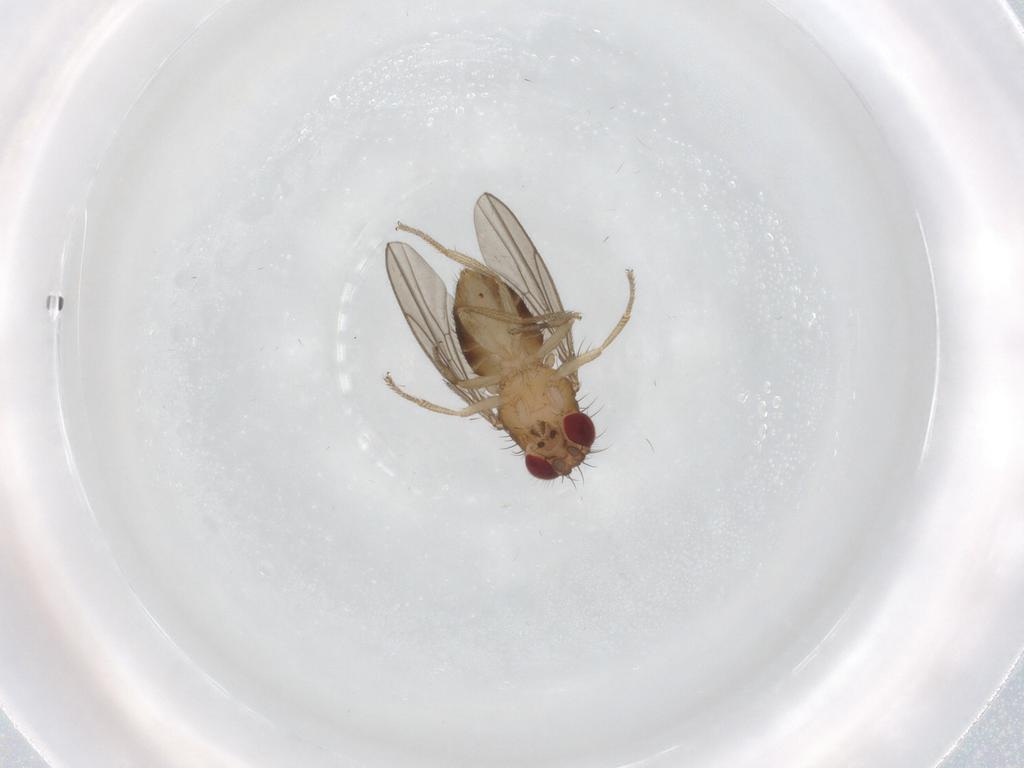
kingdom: Animalia
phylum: Arthropoda
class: Insecta
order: Diptera
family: Drosophilidae
